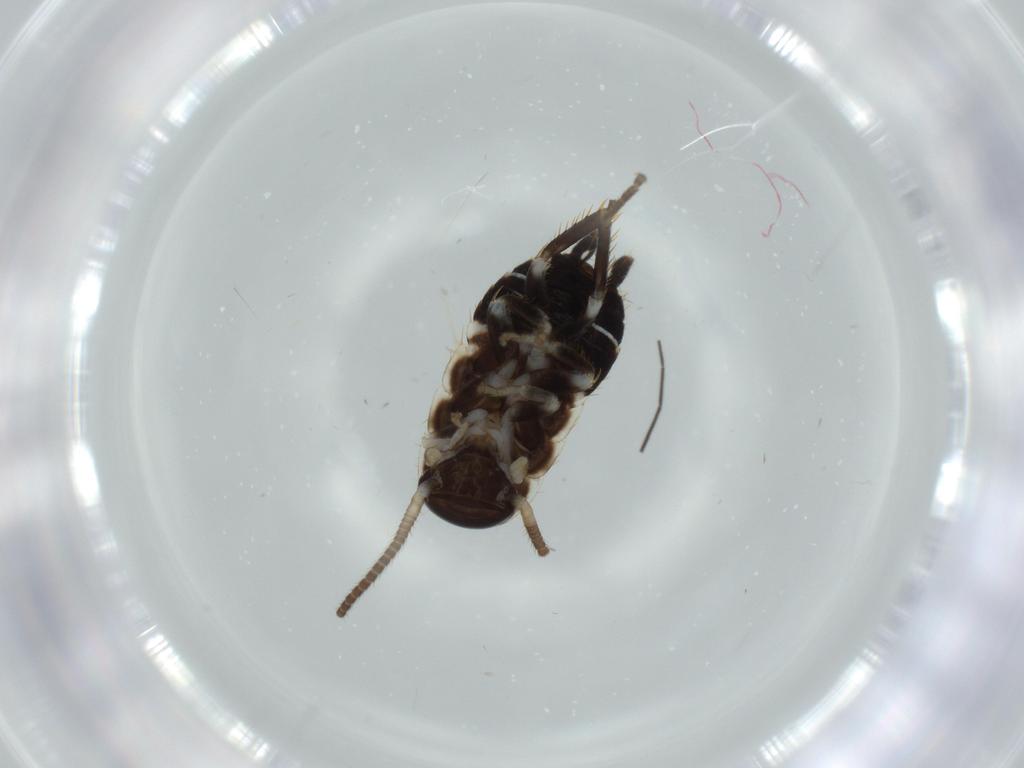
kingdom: Animalia
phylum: Arthropoda
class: Insecta
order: Blattodea
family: Ectobiidae
